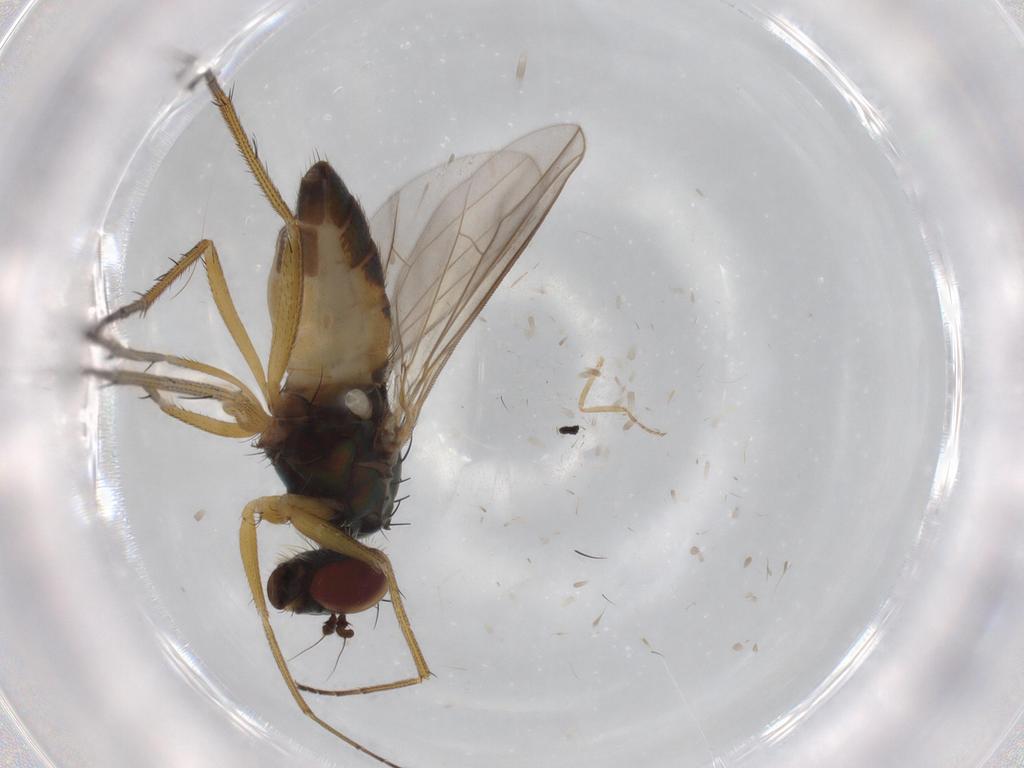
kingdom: Animalia
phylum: Arthropoda
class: Insecta
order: Diptera
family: Ceratopogonidae
